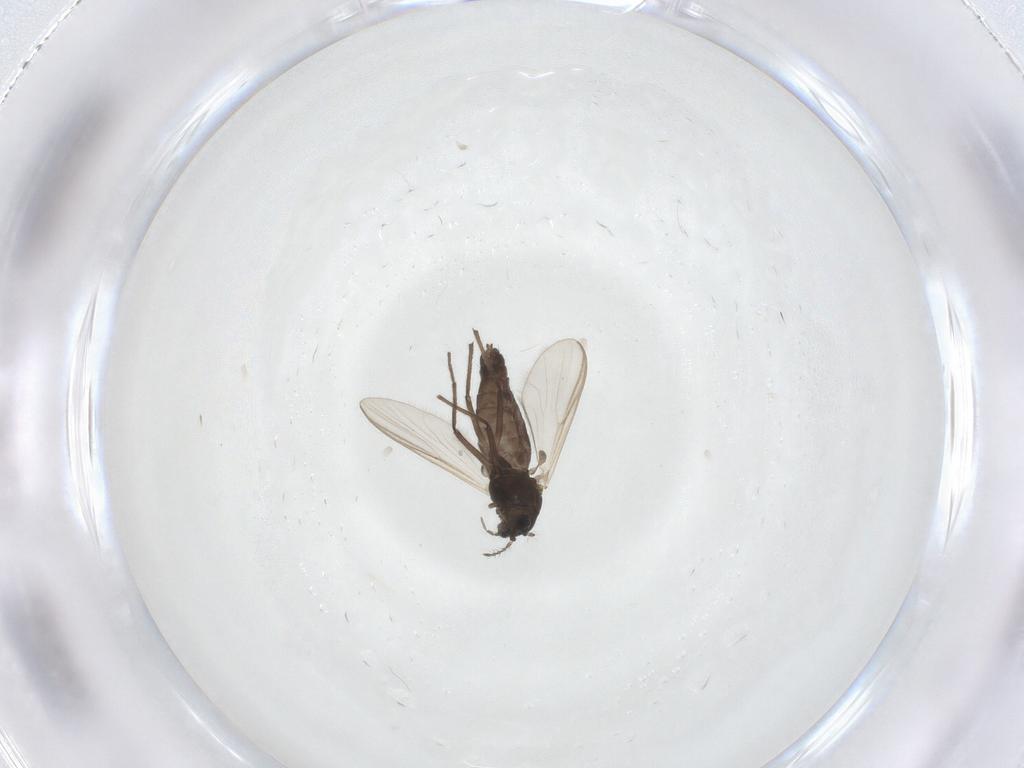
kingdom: Animalia
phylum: Arthropoda
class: Insecta
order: Diptera
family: Chironomidae
